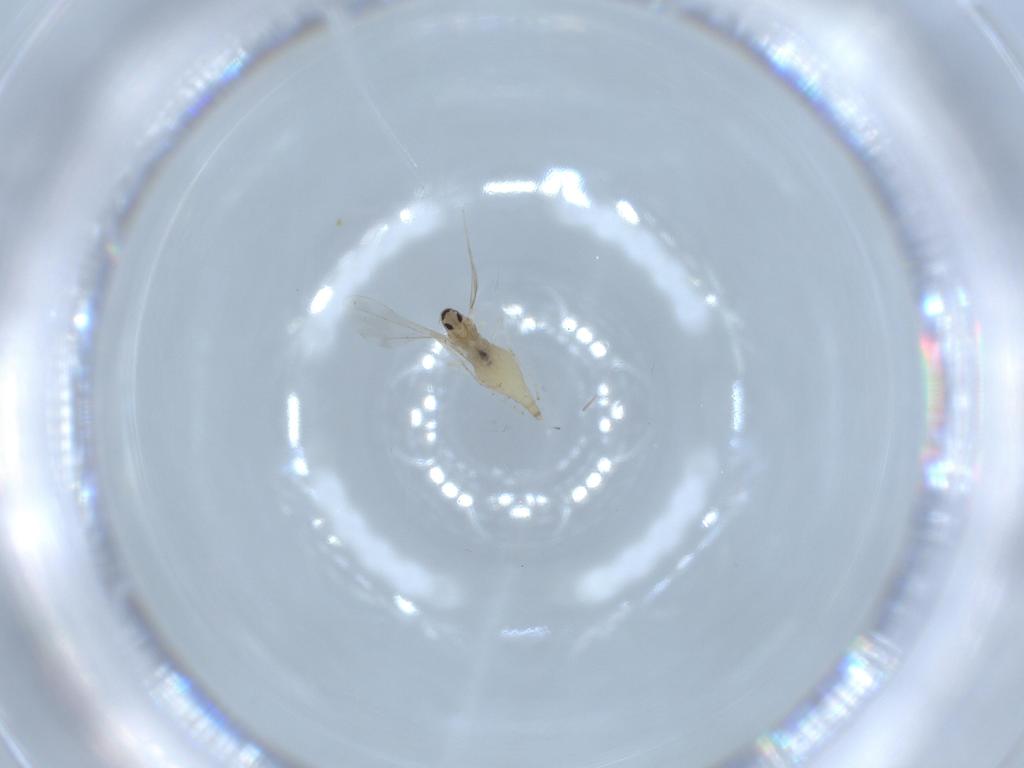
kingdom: Animalia
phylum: Arthropoda
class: Insecta
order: Diptera
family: Cecidomyiidae
